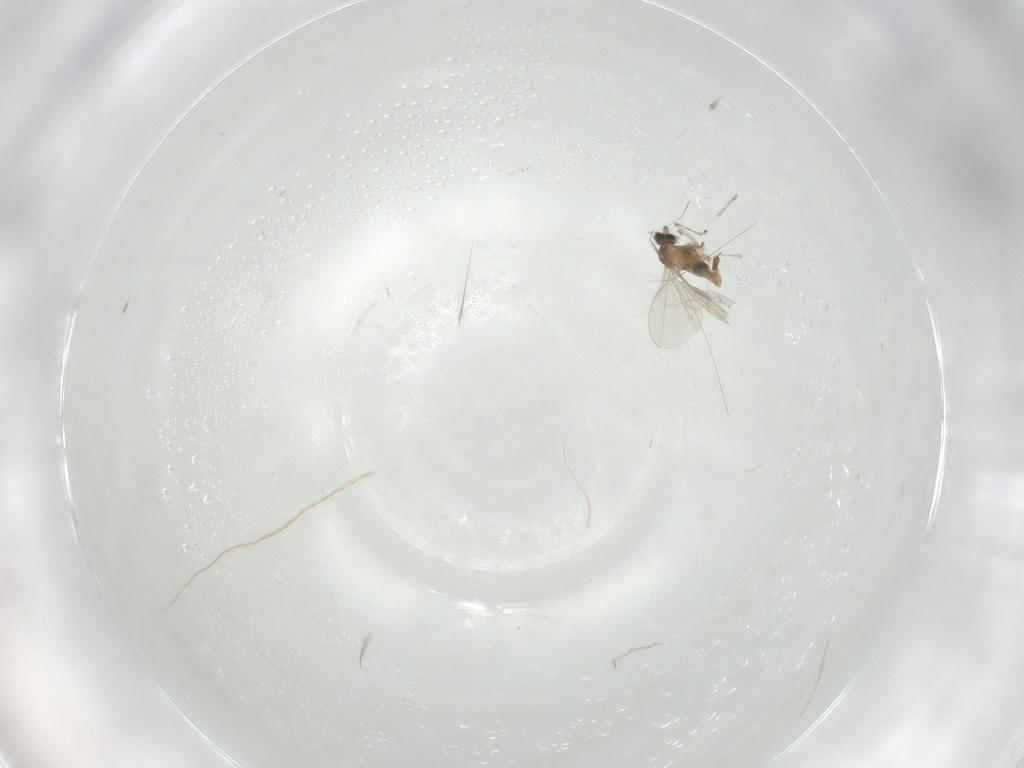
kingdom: Animalia
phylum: Arthropoda
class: Insecta
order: Diptera
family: Cecidomyiidae
